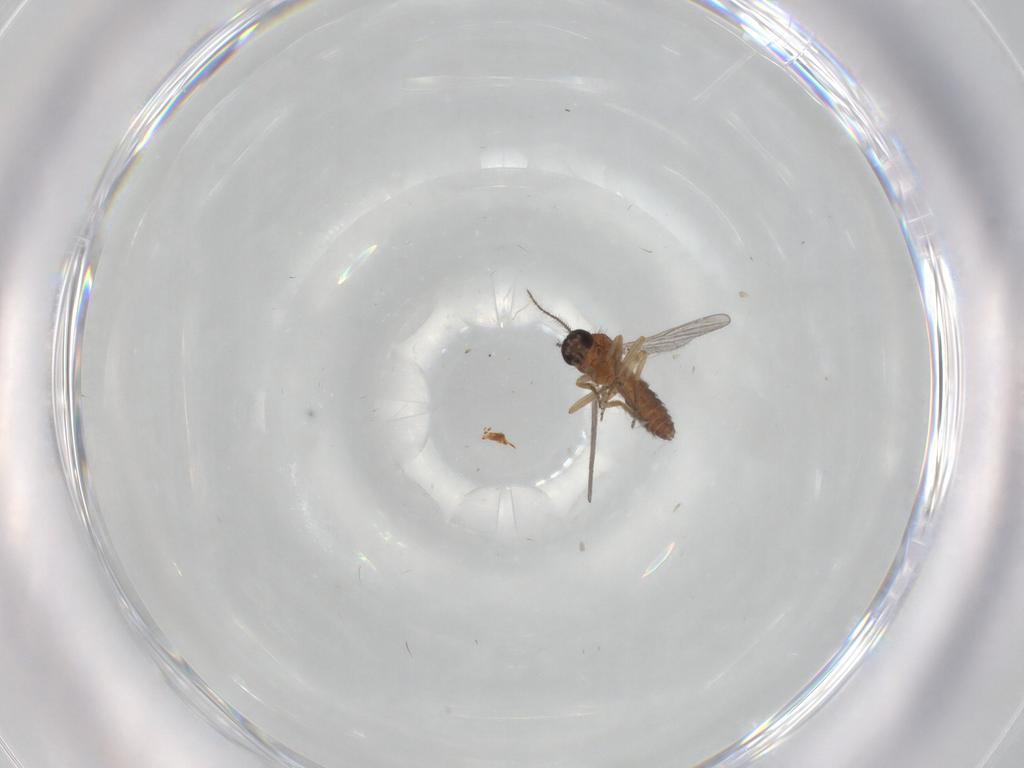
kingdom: Animalia
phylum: Arthropoda
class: Insecta
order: Diptera
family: Ceratopogonidae
